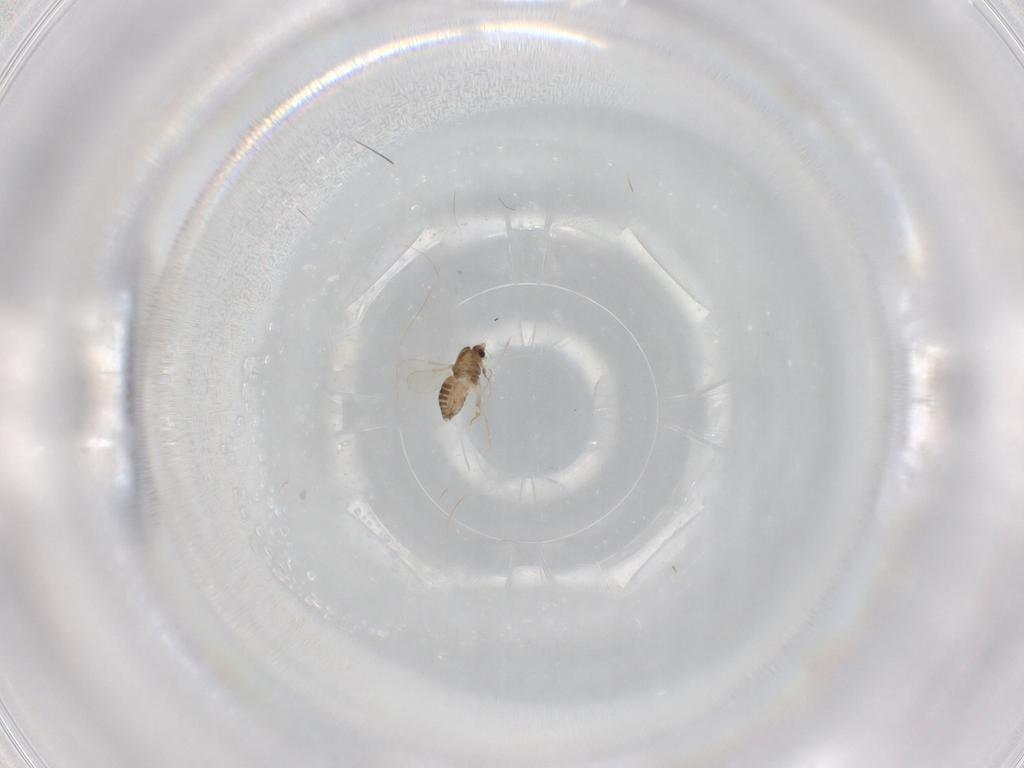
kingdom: Animalia
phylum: Arthropoda
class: Insecta
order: Diptera
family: Chironomidae
